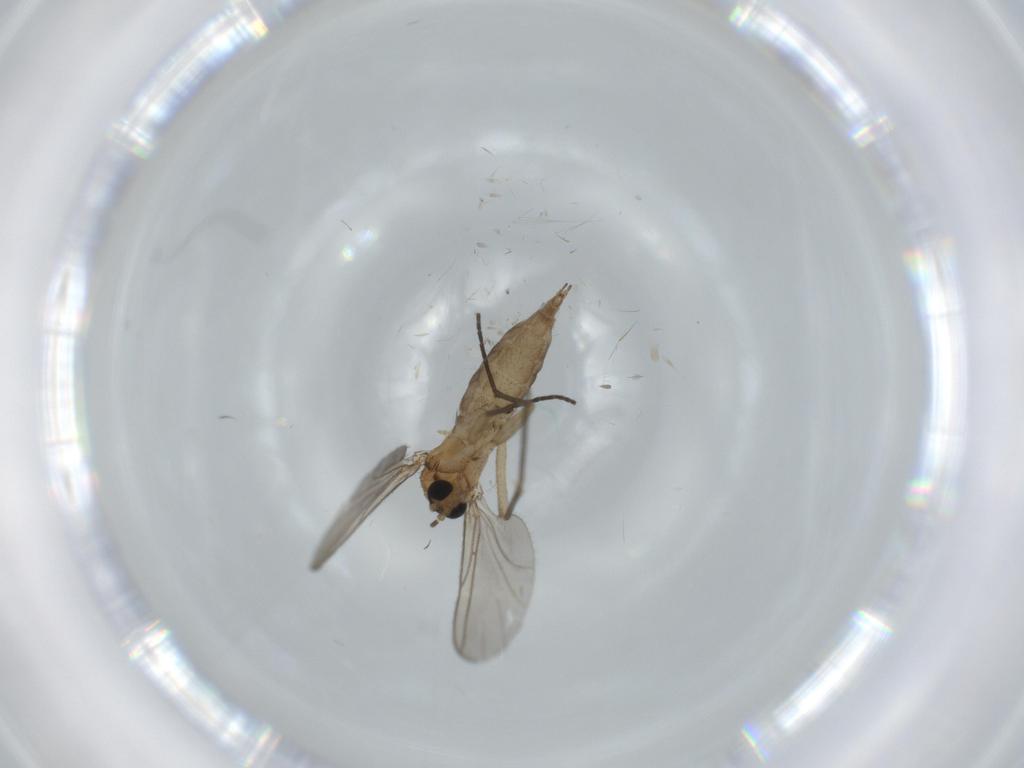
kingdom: Animalia
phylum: Arthropoda
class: Insecta
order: Diptera
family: Sciaridae
